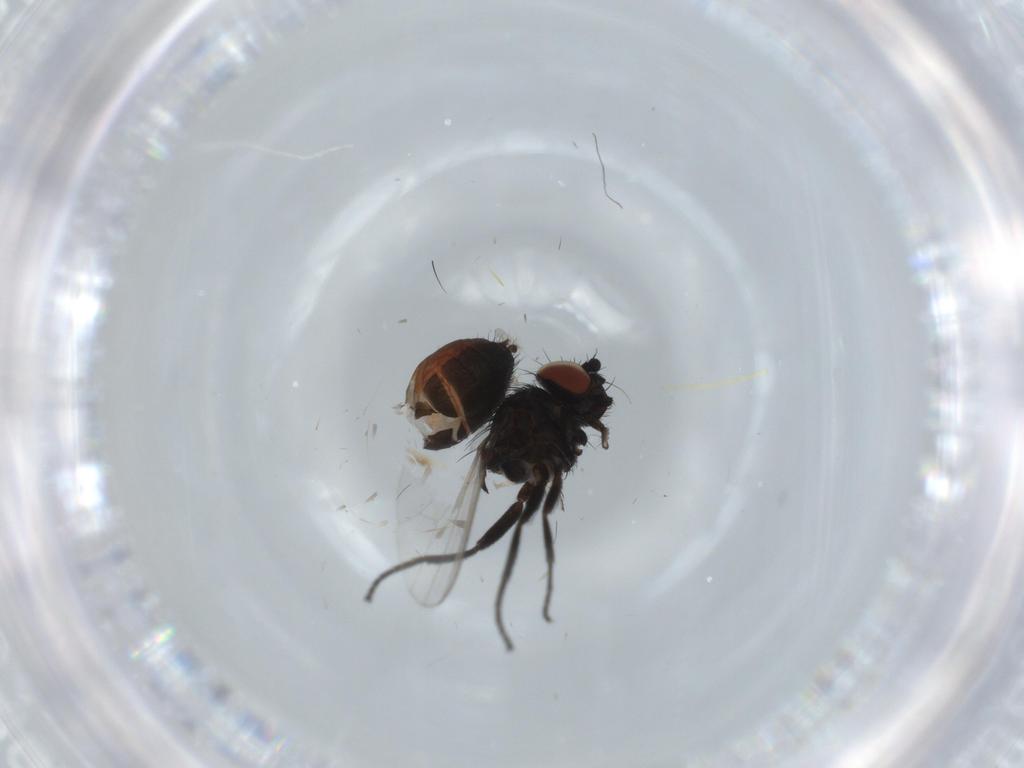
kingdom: Animalia
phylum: Arthropoda
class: Insecta
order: Diptera
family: Milichiidae
